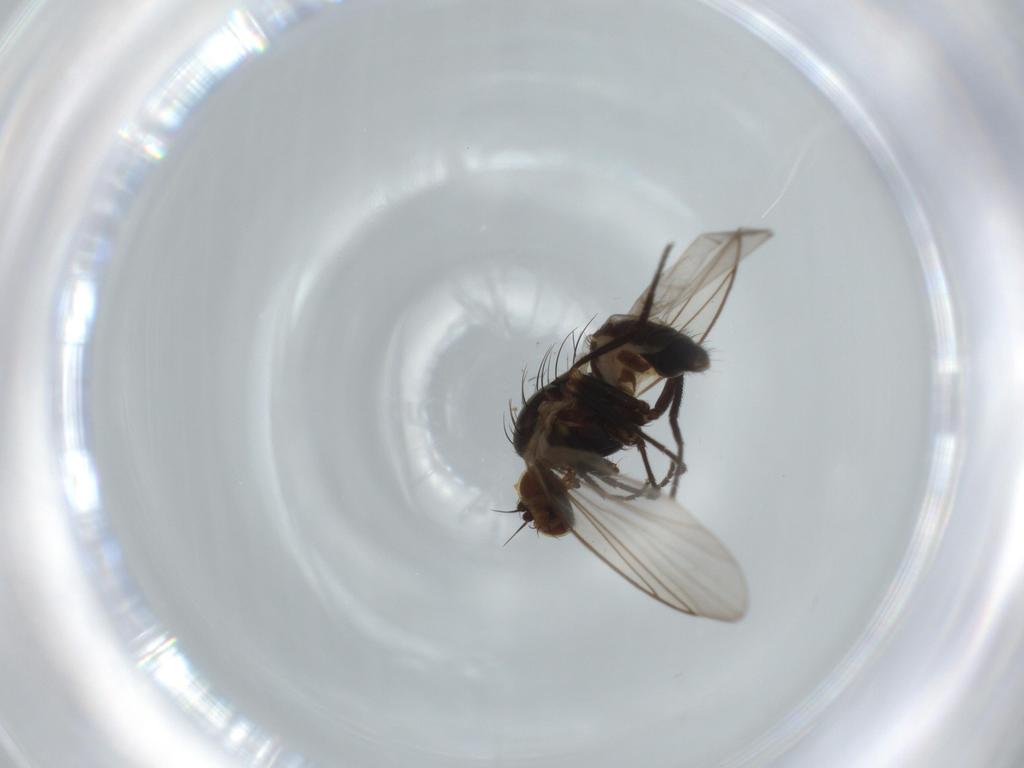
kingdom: Animalia
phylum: Arthropoda
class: Insecta
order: Diptera
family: Agromyzidae
